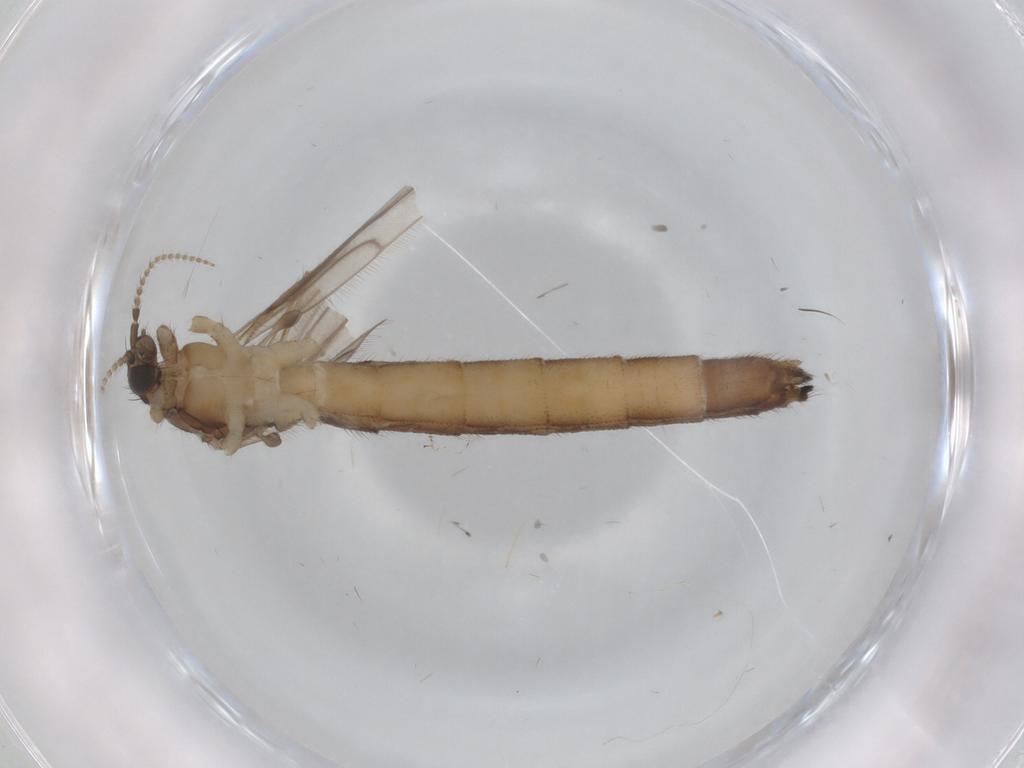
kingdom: Animalia
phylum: Arthropoda
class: Insecta
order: Diptera
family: Limoniidae
